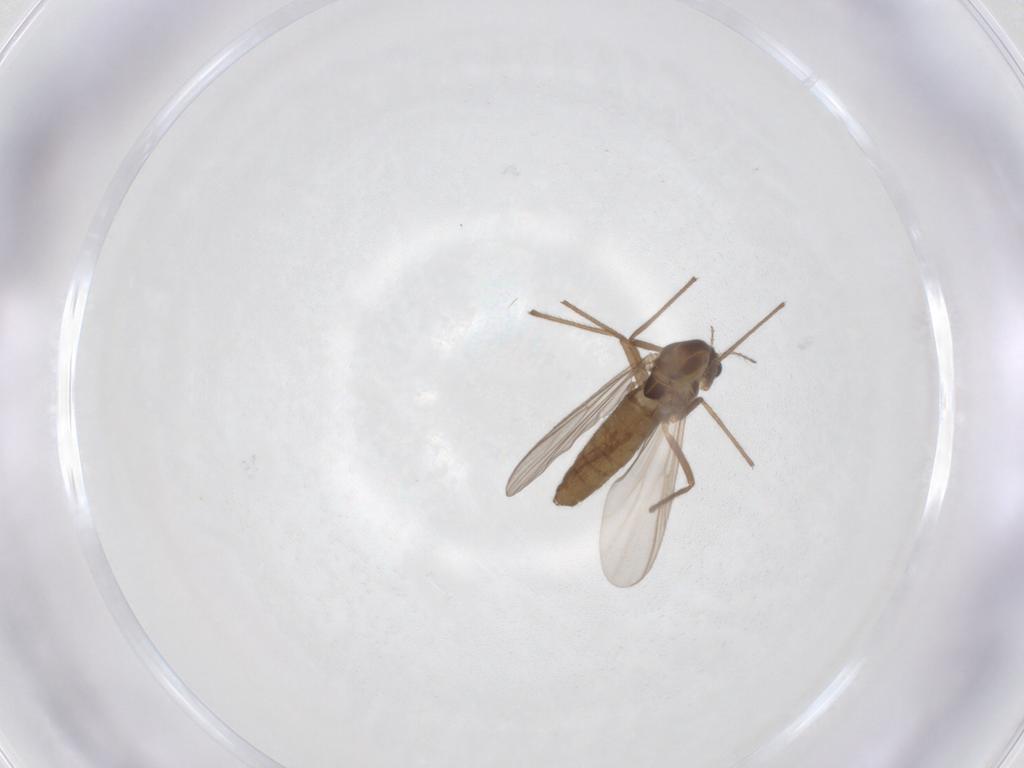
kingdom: Animalia
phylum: Arthropoda
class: Insecta
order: Diptera
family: Chironomidae
